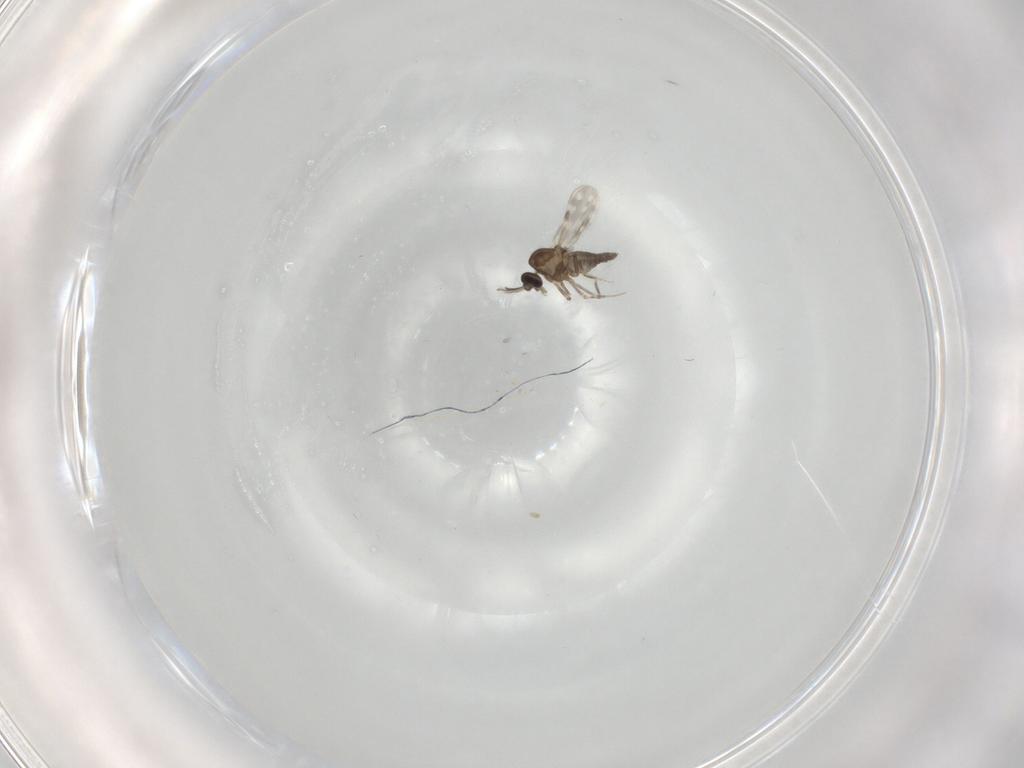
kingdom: Animalia
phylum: Arthropoda
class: Insecta
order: Diptera
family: Ceratopogonidae
